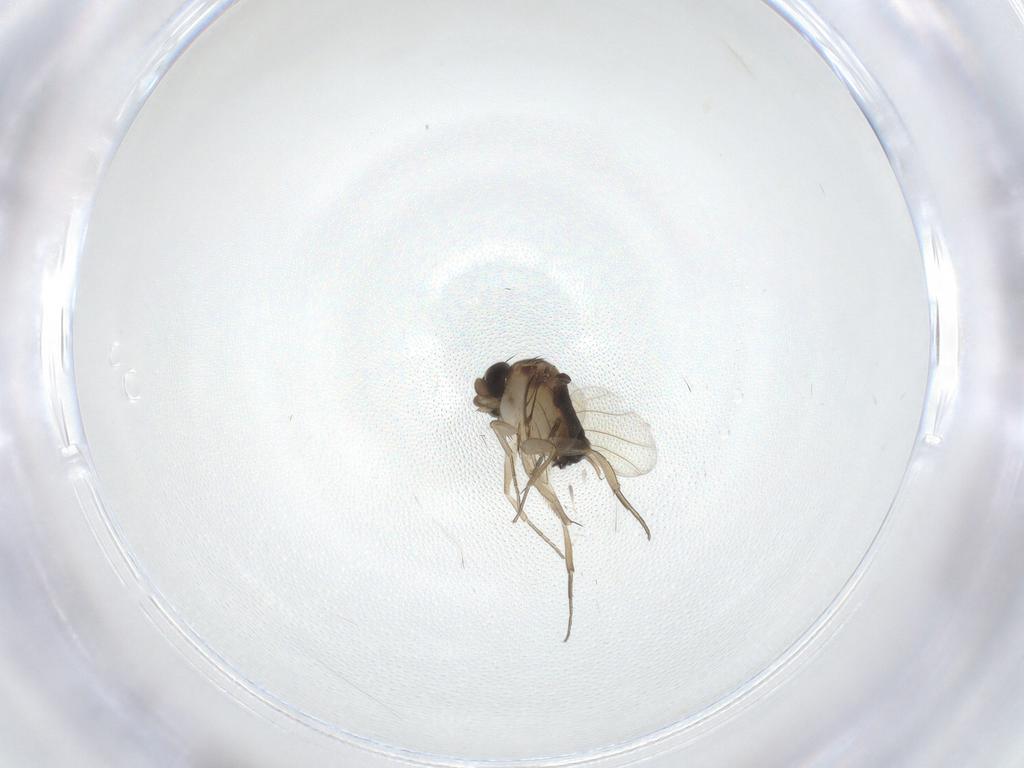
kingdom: Animalia
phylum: Arthropoda
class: Insecta
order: Diptera
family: Phoridae
